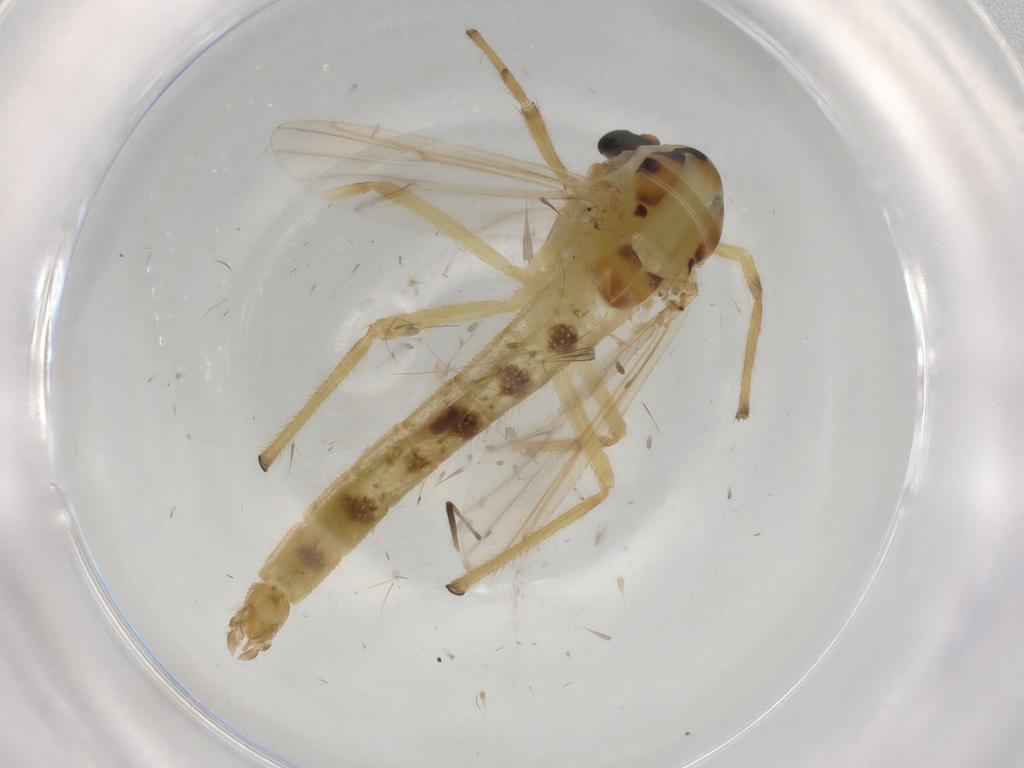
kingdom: Animalia
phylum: Arthropoda
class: Insecta
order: Diptera
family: Cecidomyiidae
